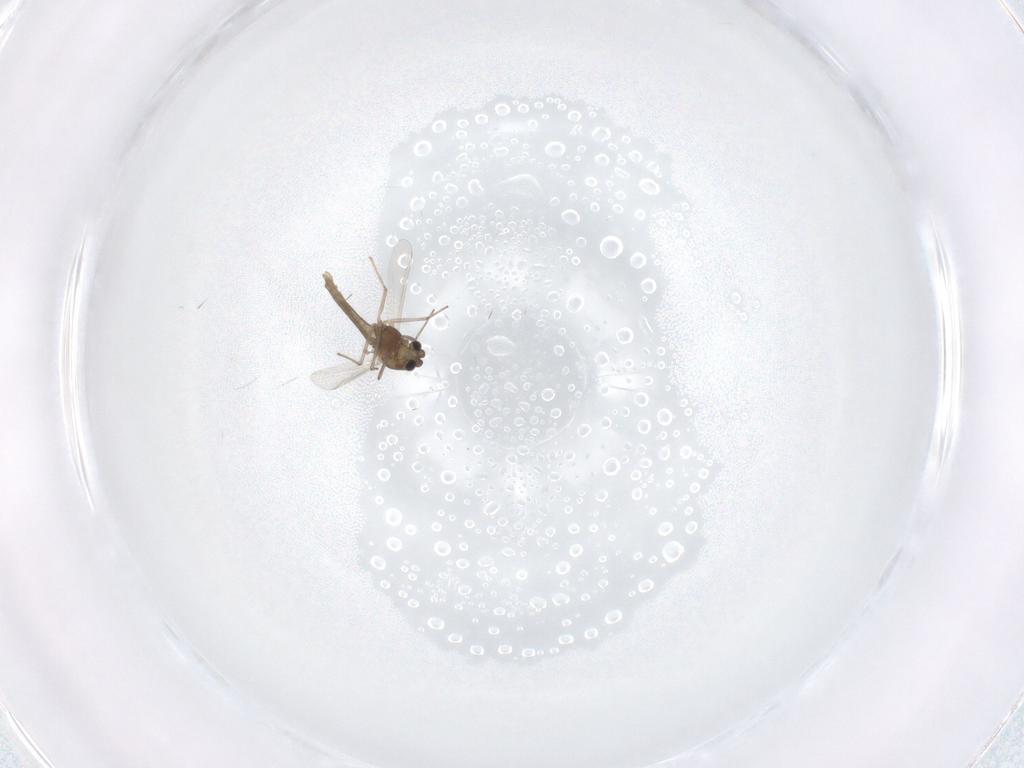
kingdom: Animalia
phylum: Arthropoda
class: Insecta
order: Diptera
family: Chironomidae
